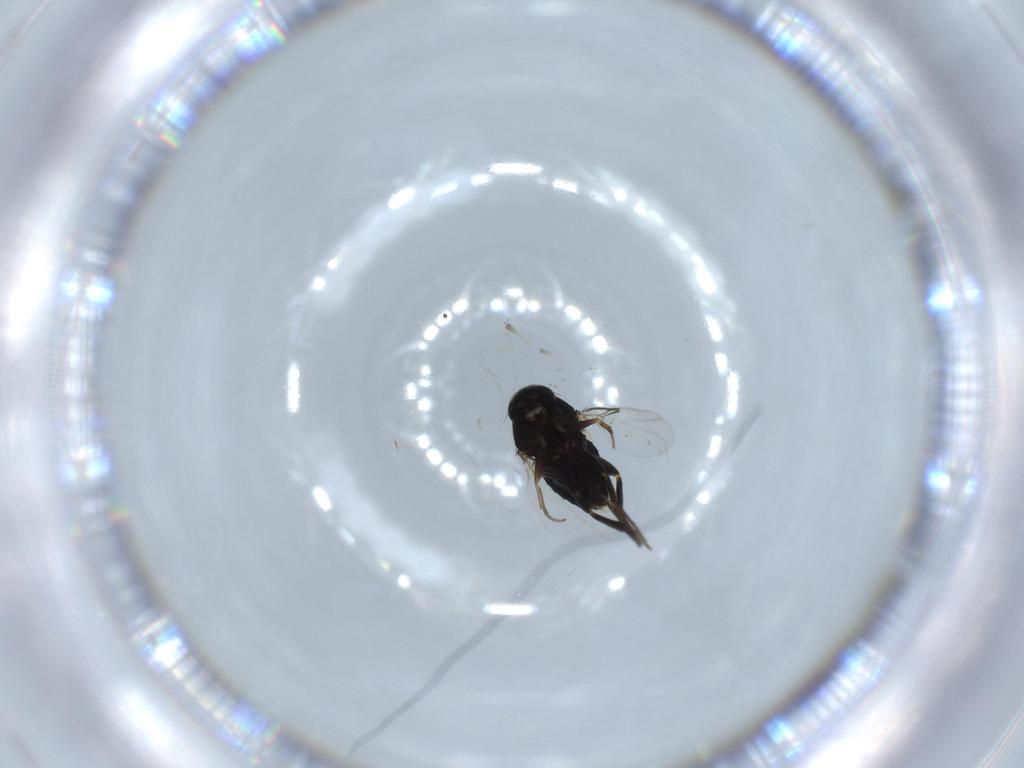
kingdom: Animalia
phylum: Arthropoda
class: Insecta
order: Diptera
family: Phoridae
